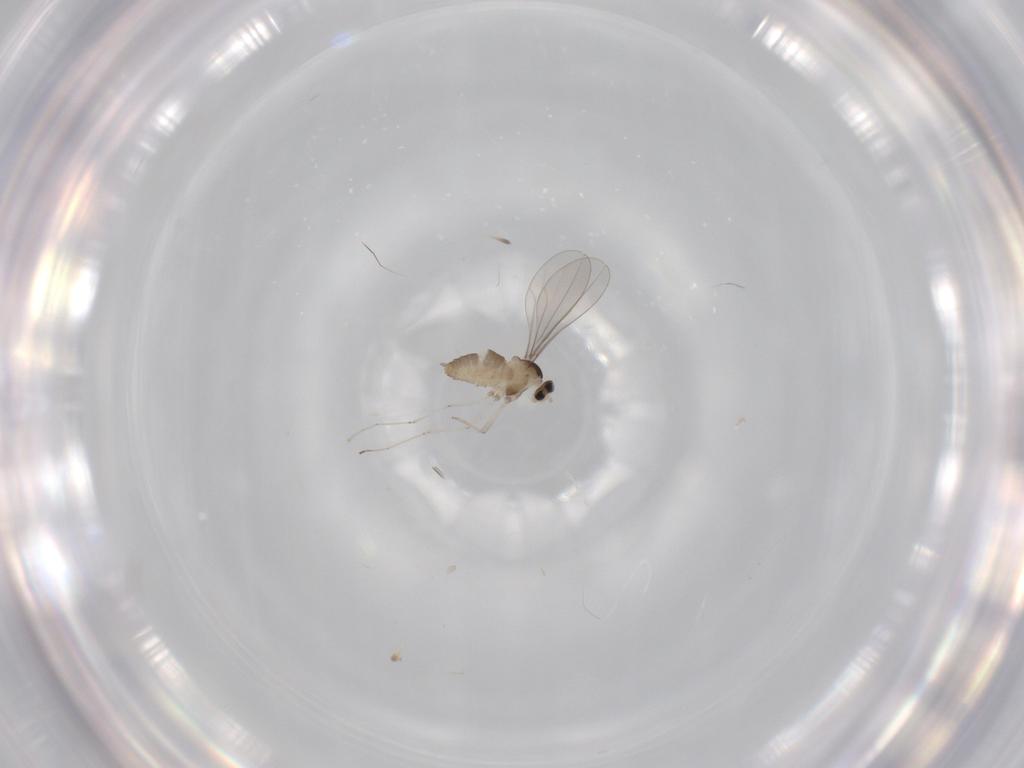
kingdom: Animalia
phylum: Arthropoda
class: Insecta
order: Diptera
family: Cecidomyiidae
